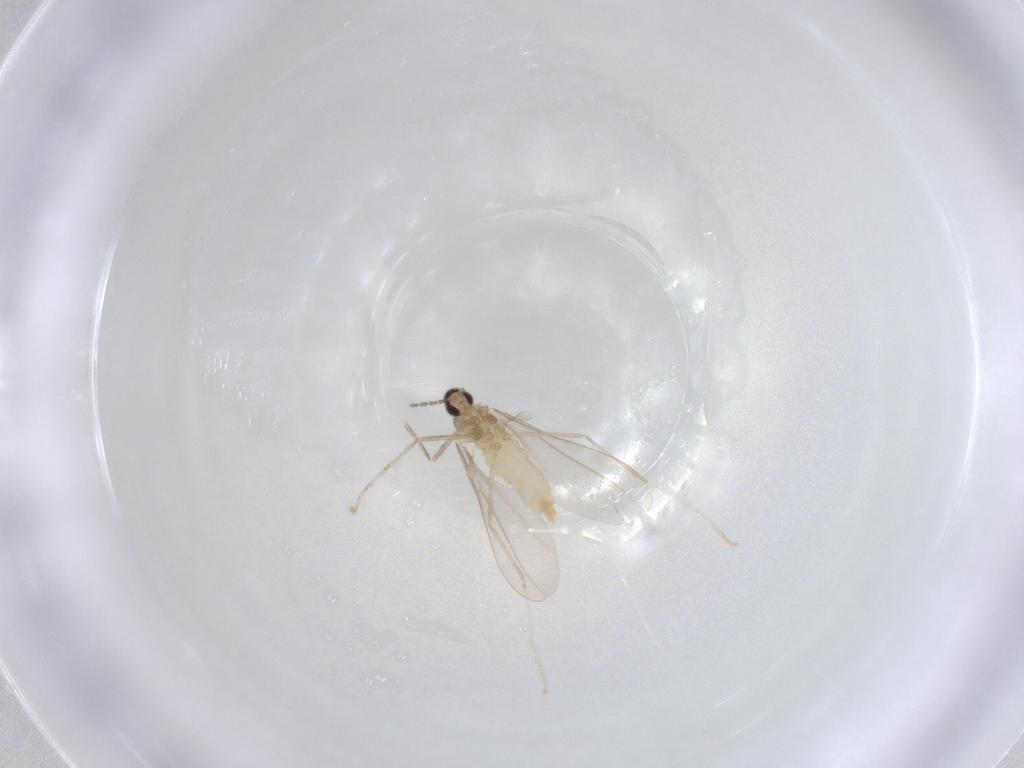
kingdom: Animalia
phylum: Arthropoda
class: Insecta
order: Diptera
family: Cecidomyiidae
